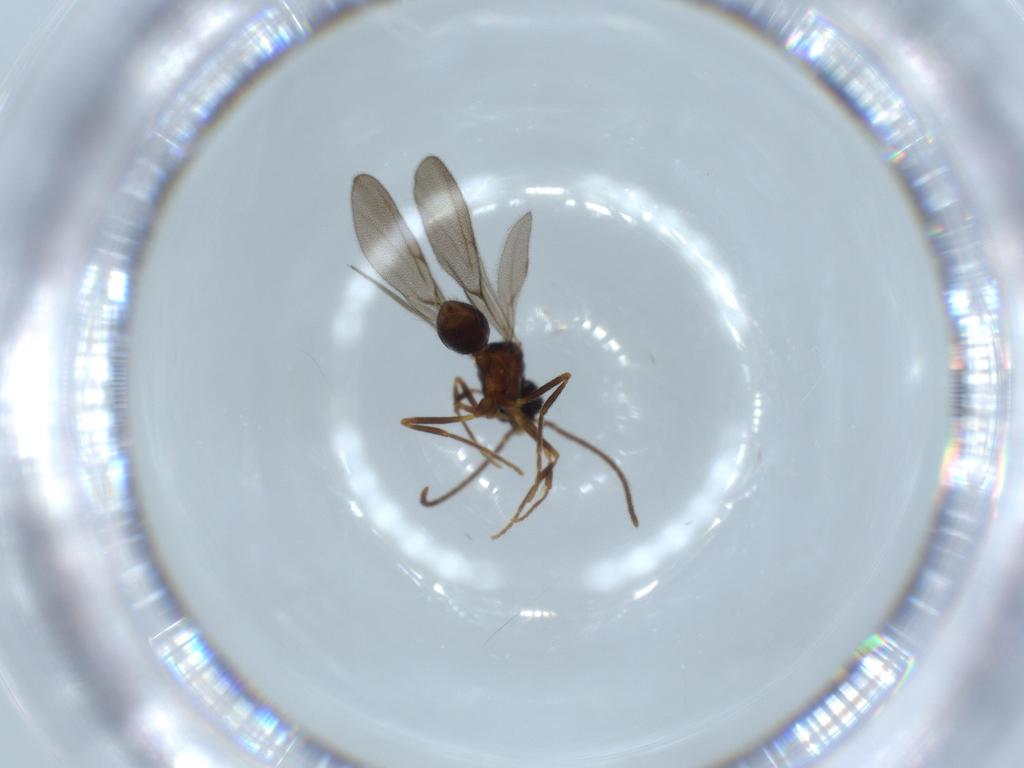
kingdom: Animalia
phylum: Arthropoda
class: Insecta
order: Hymenoptera
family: Formicidae
